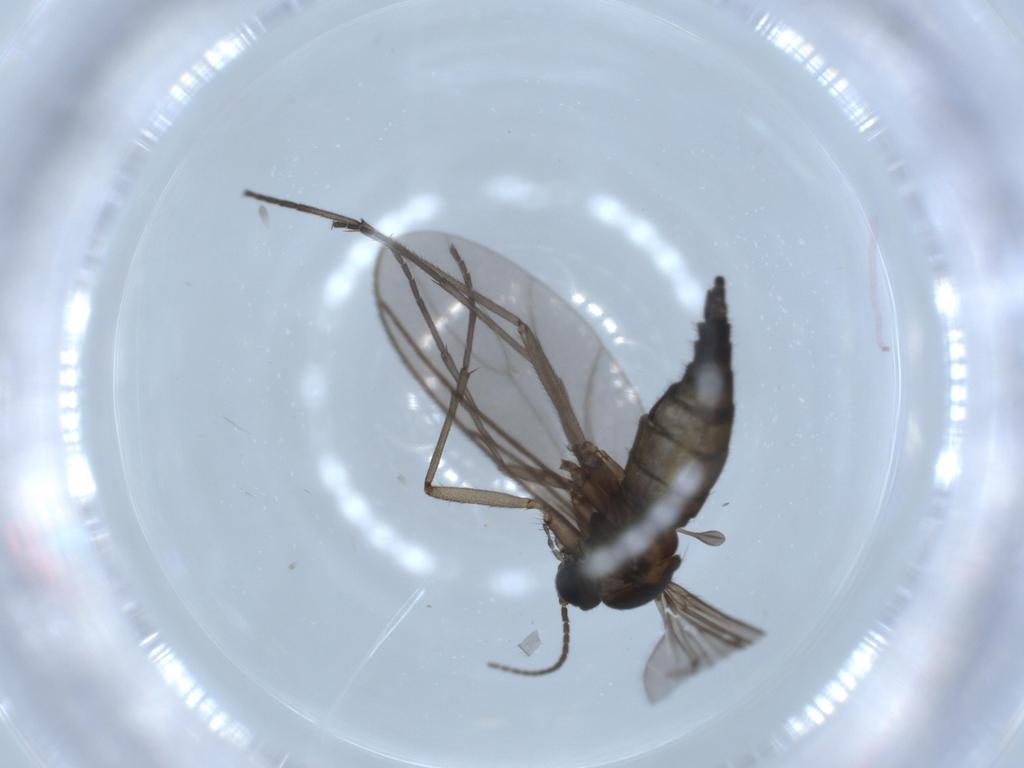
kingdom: Animalia
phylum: Arthropoda
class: Insecta
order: Diptera
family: Sciaridae
